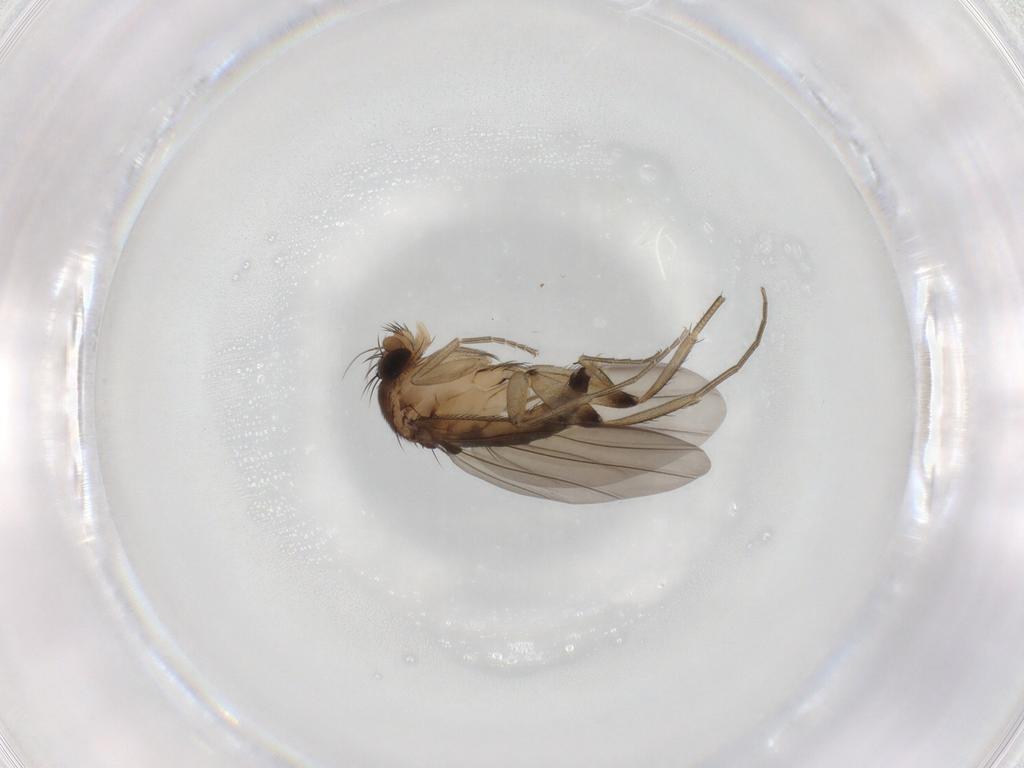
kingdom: Animalia
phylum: Arthropoda
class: Insecta
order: Diptera
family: Phoridae
